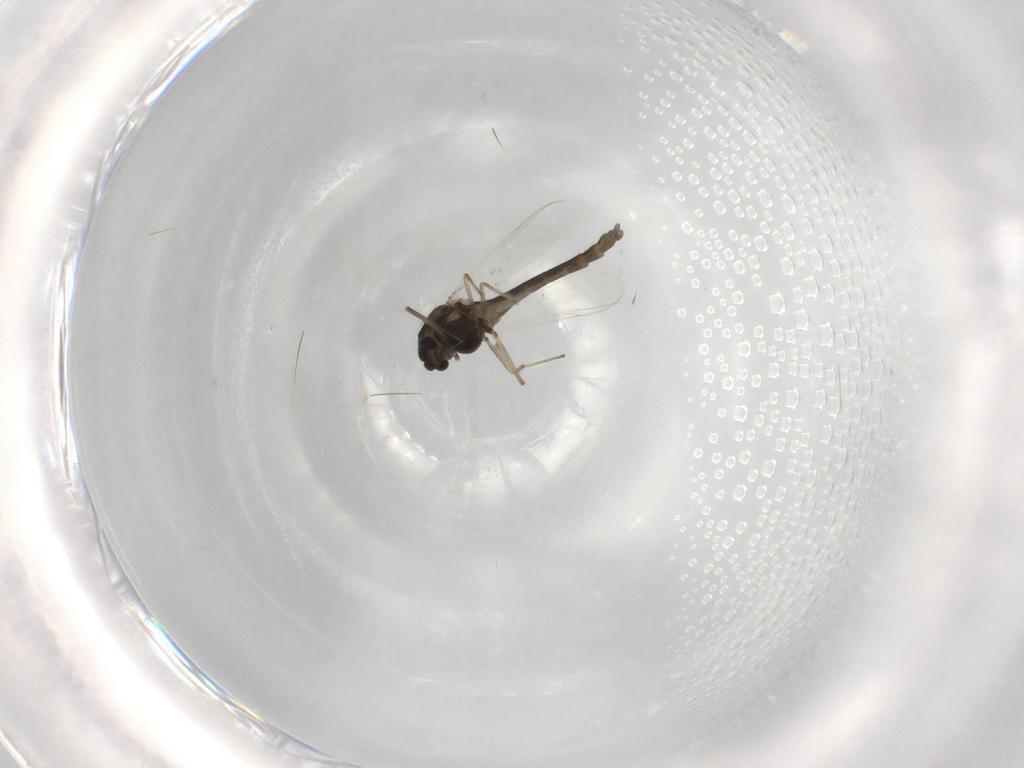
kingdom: Animalia
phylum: Arthropoda
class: Insecta
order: Diptera
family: Chironomidae
